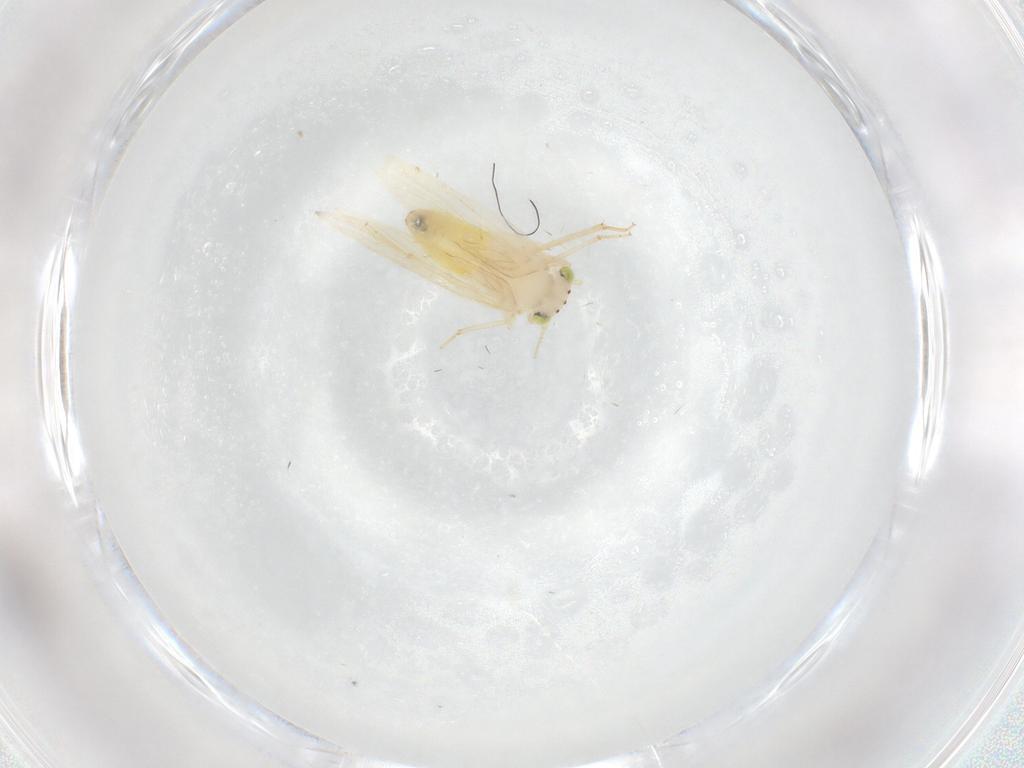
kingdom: Animalia
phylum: Arthropoda
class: Insecta
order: Psocodea
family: Lepidopsocidae
